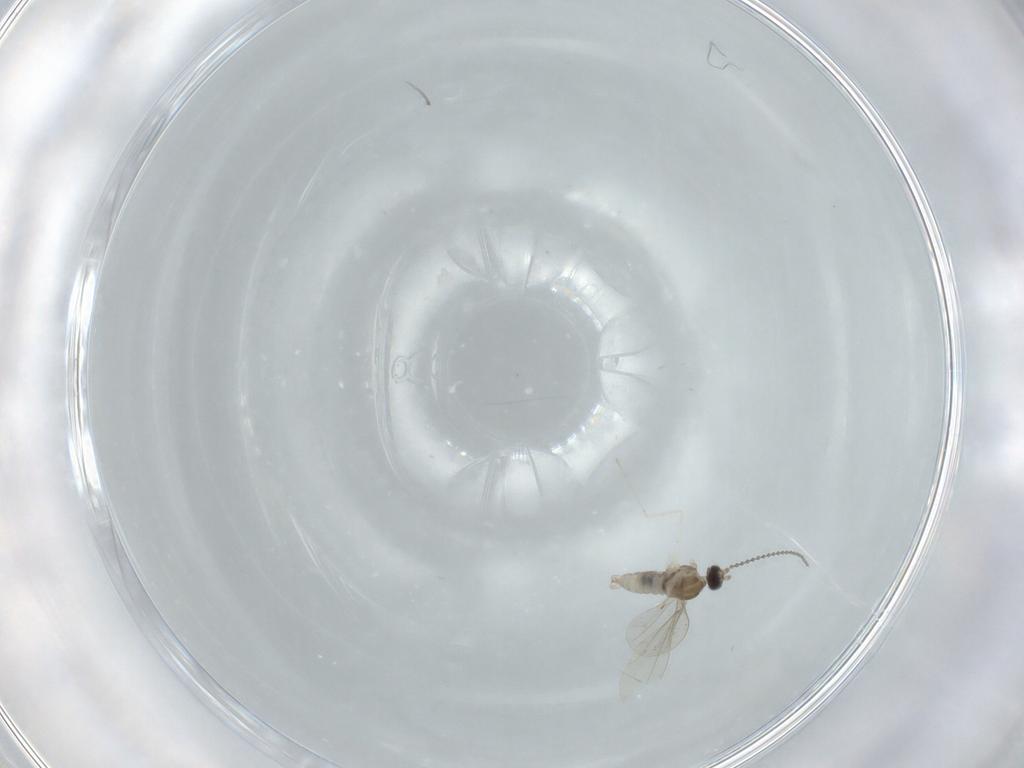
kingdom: Animalia
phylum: Arthropoda
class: Insecta
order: Diptera
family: Cecidomyiidae
